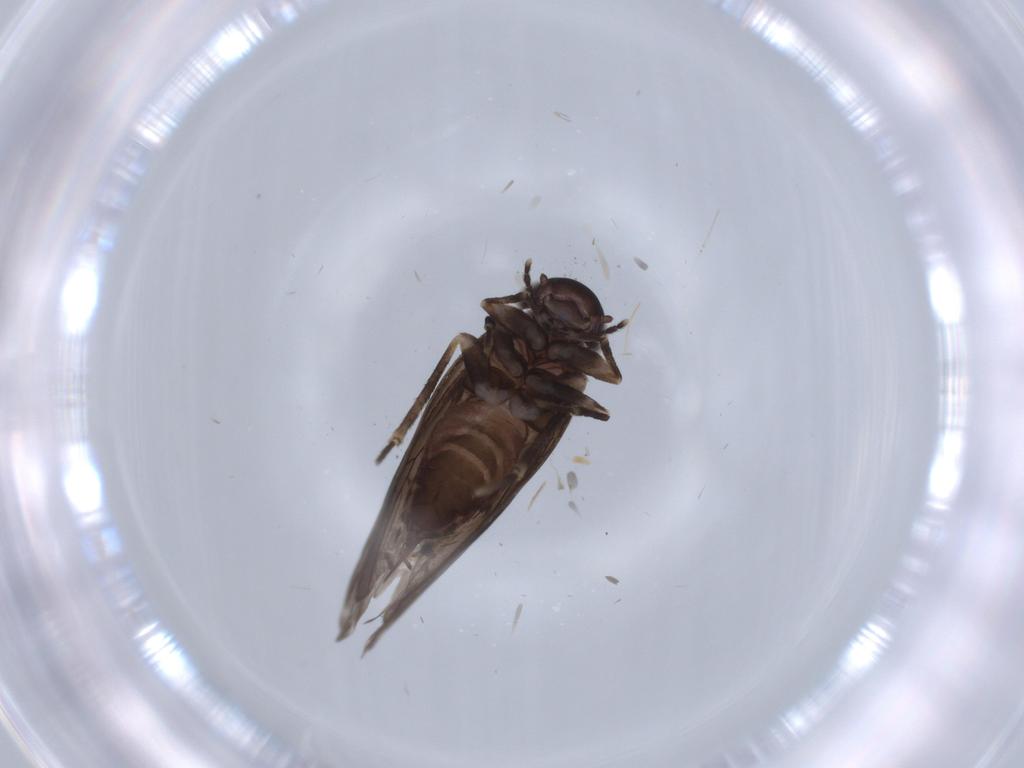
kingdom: Animalia
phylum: Arthropoda
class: Insecta
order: Psocodea
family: Amphientomidae
